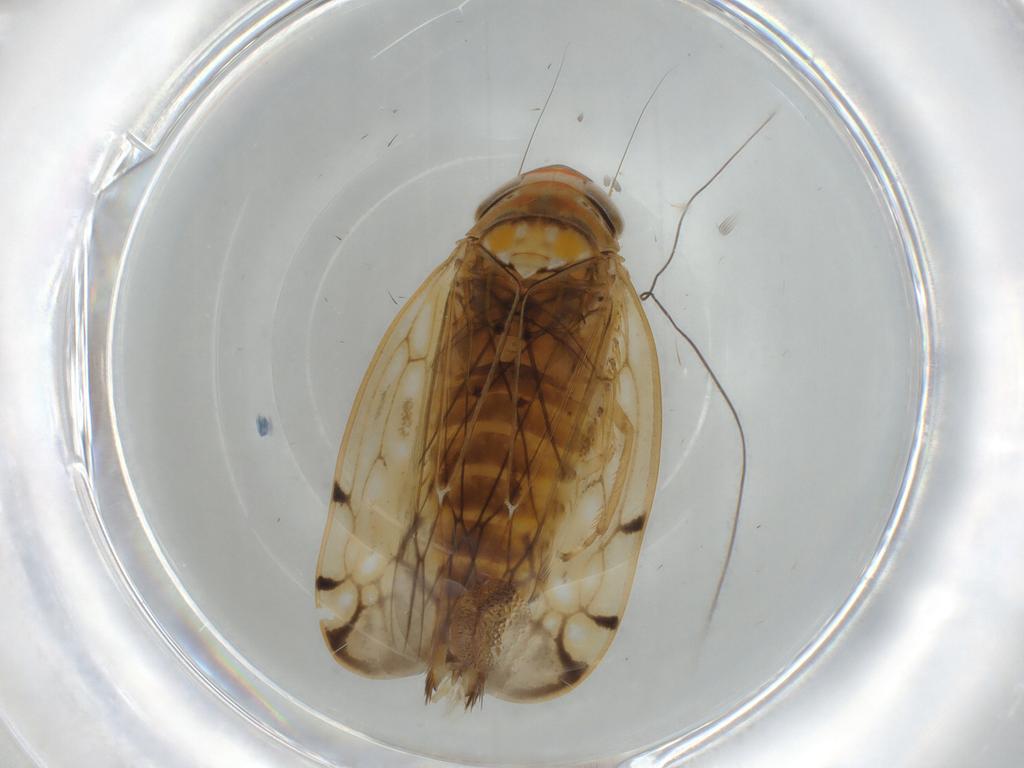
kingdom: Animalia
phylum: Arthropoda
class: Insecta
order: Hemiptera
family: Cicadellidae
